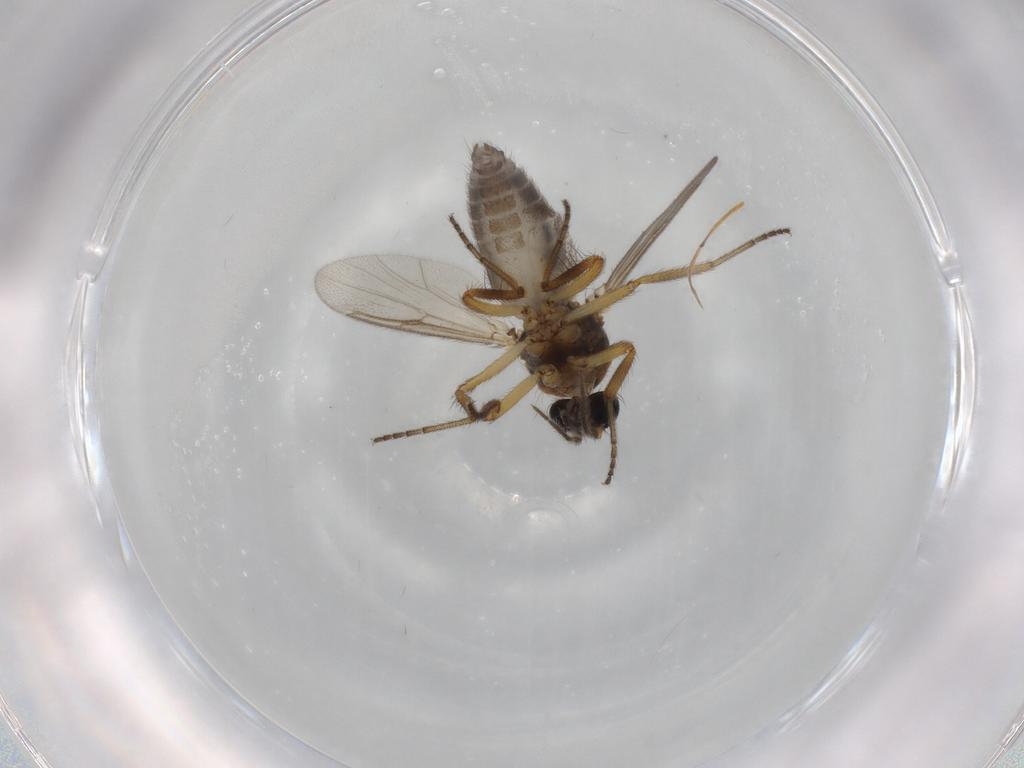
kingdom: Animalia
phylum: Arthropoda
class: Insecta
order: Diptera
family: Ceratopogonidae
